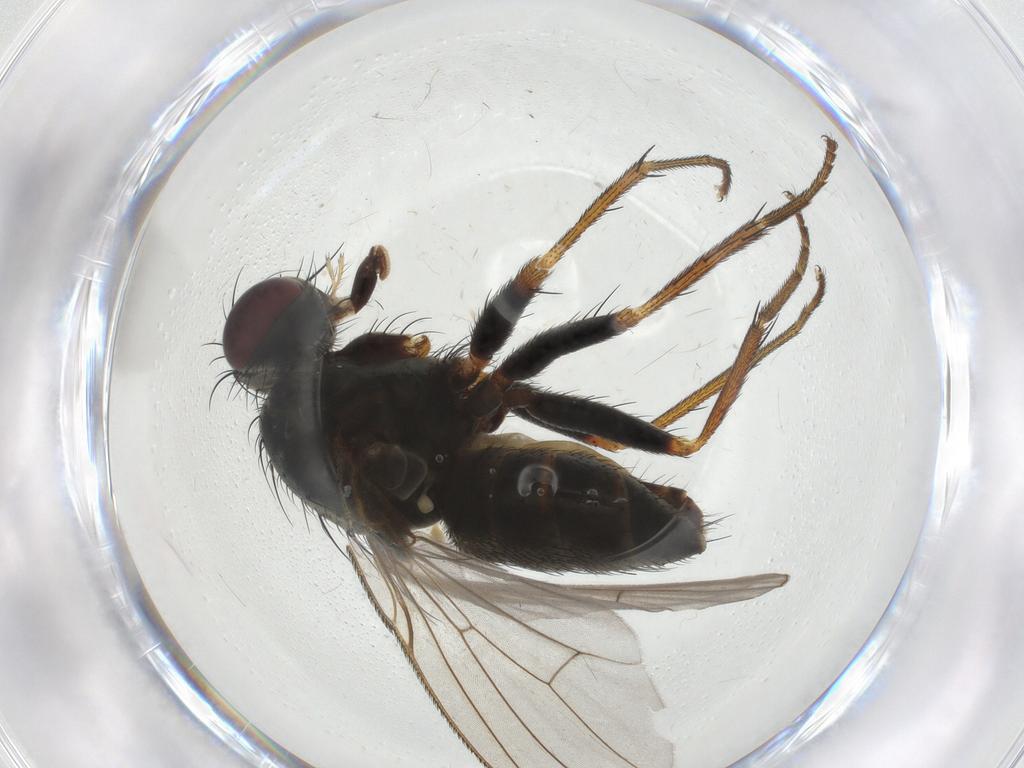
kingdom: Animalia
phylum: Arthropoda
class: Insecta
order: Diptera
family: Chironomidae
